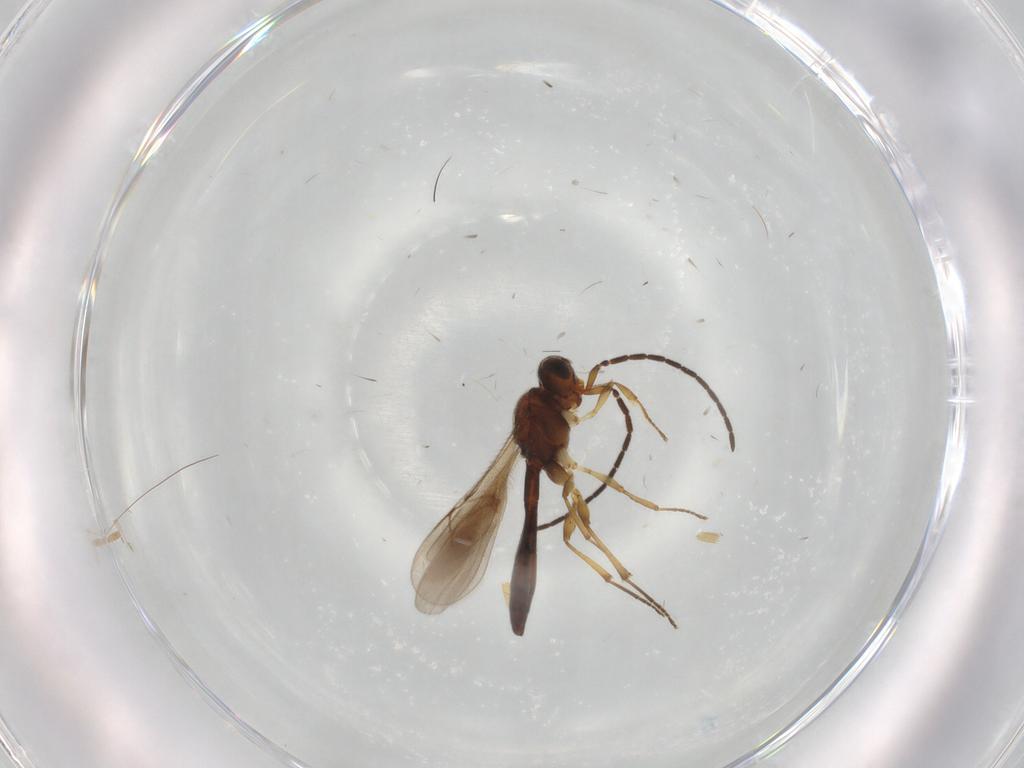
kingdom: Animalia
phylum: Arthropoda
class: Insecta
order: Hymenoptera
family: Scelionidae
